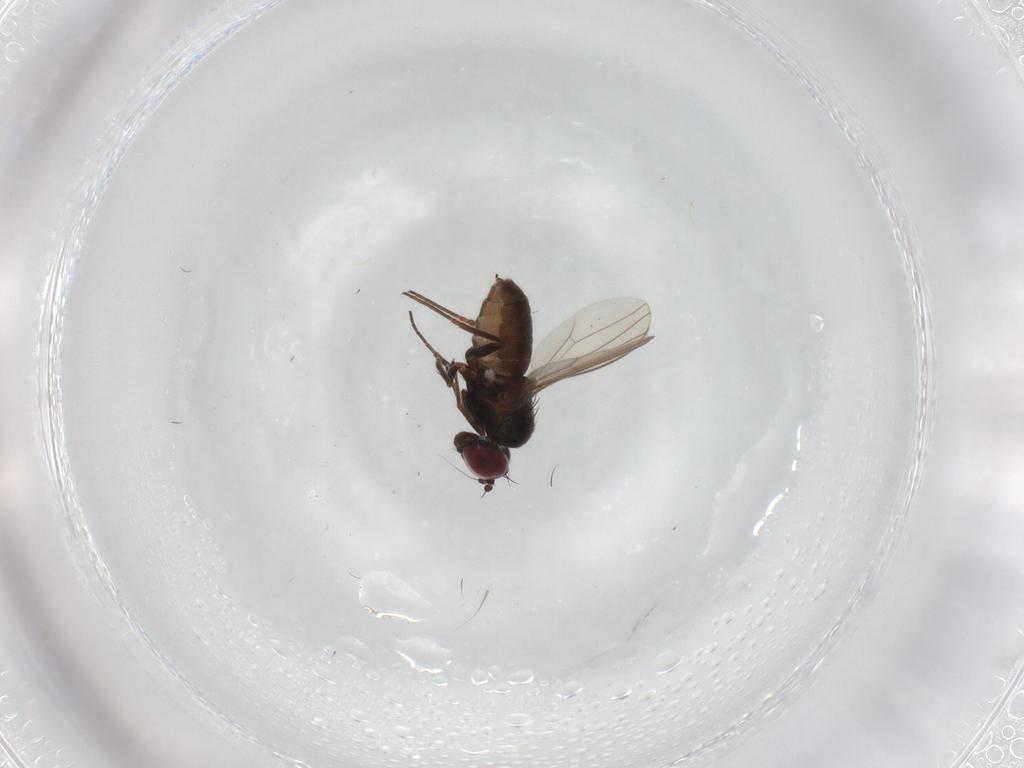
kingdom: Animalia
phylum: Arthropoda
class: Insecta
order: Diptera
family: Dolichopodidae
